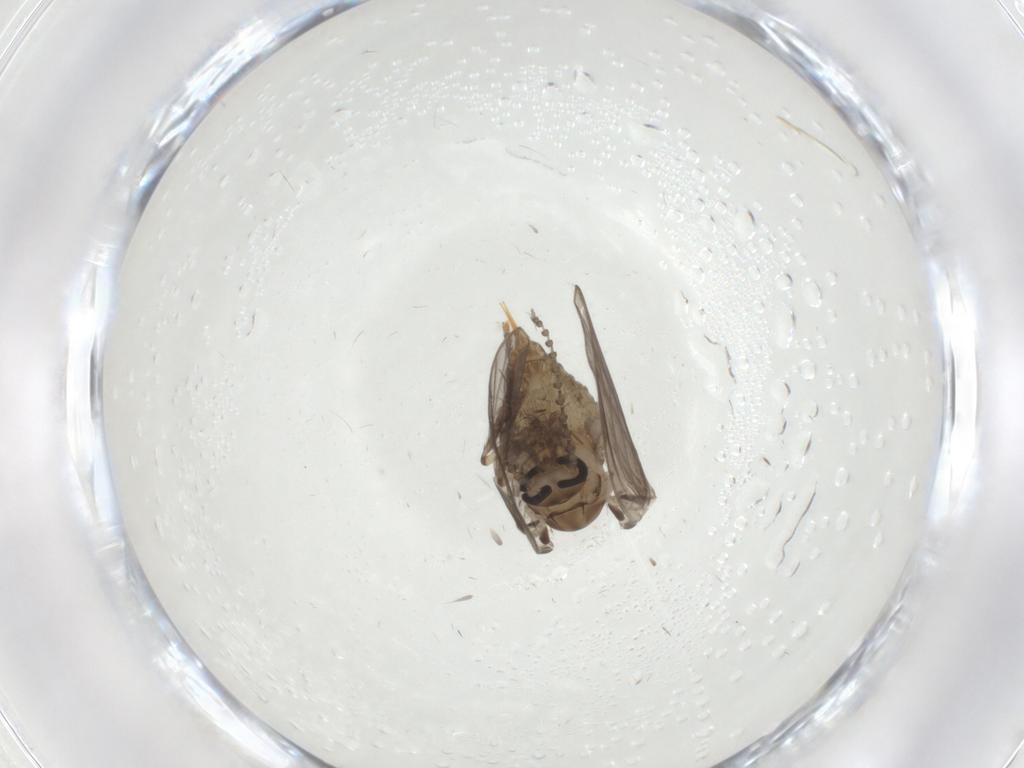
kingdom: Animalia
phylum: Arthropoda
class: Insecta
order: Diptera
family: Psychodidae
